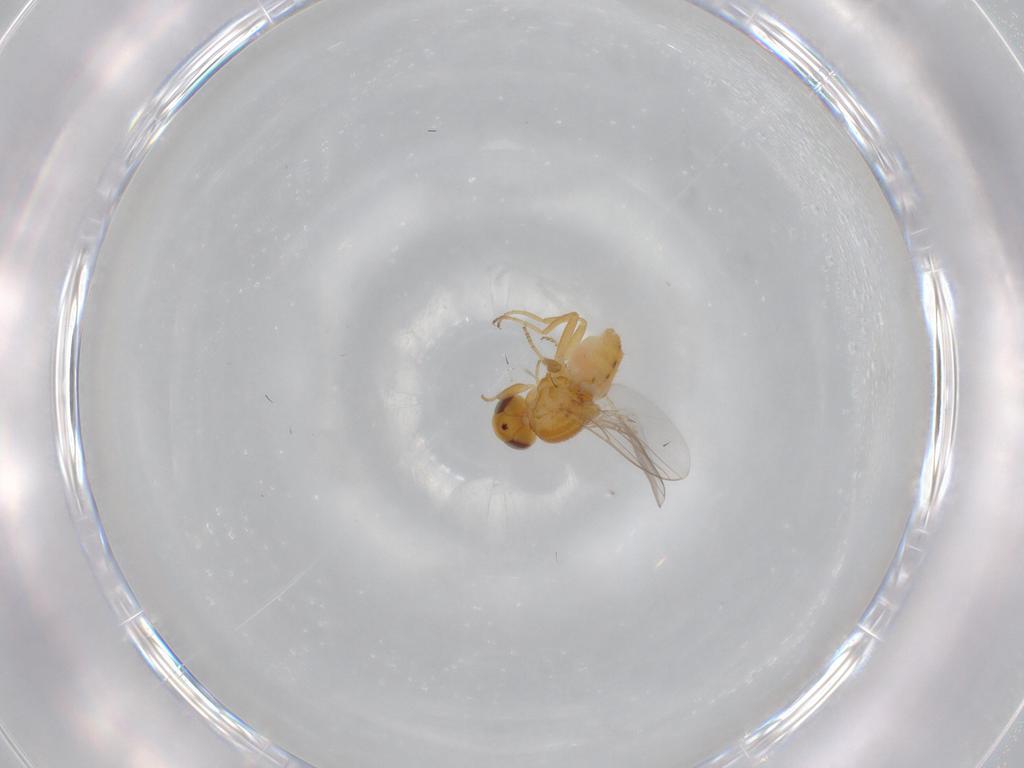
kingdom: Animalia
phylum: Arthropoda
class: Insecta
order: Diptera
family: Chloropidae
